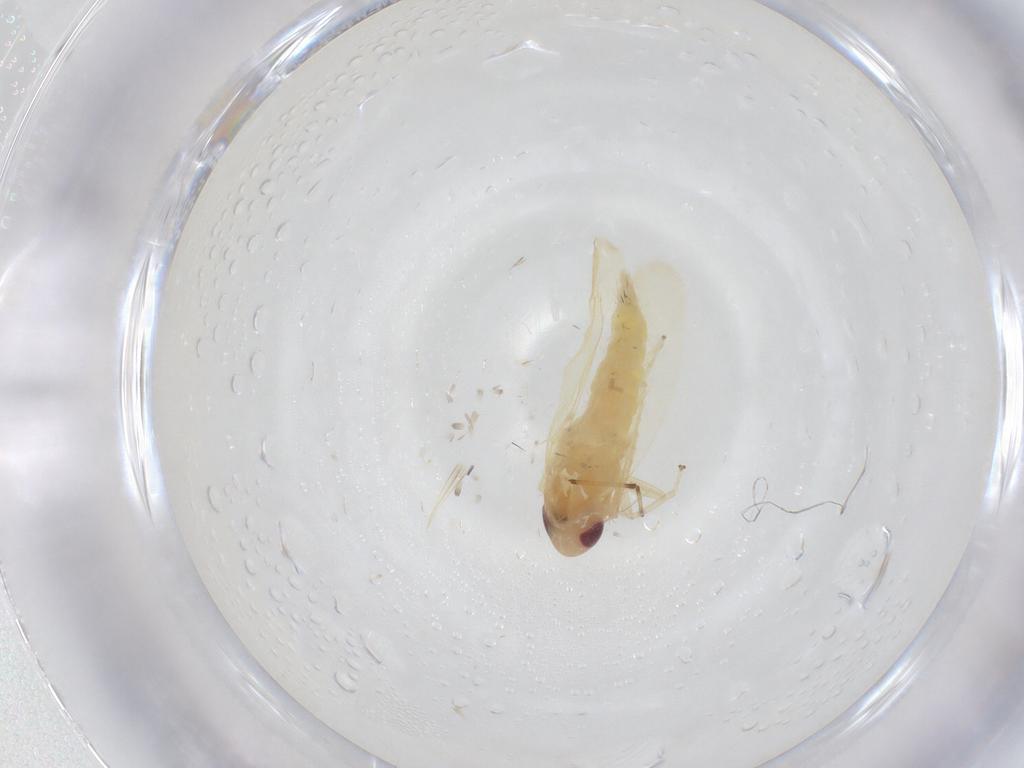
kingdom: Animalia
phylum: Arthropoda
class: Insecta
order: Hemiptera
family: Cicadellidae
